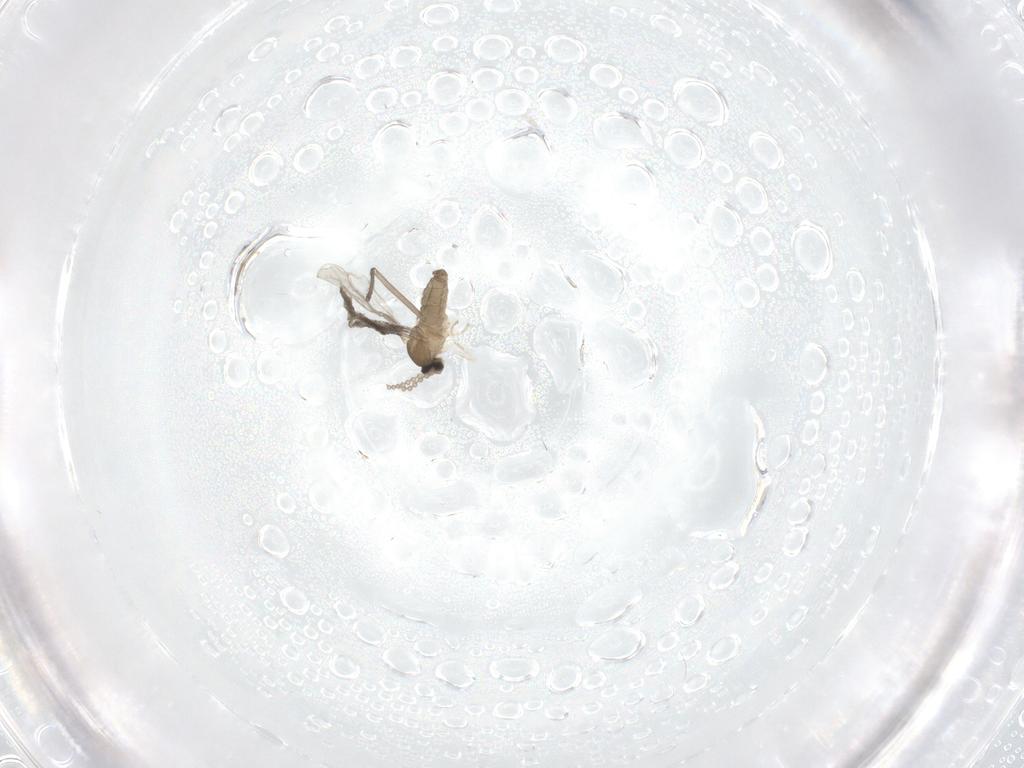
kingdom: Animalia
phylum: Arthropoda
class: Insecta
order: Diptera
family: Cecidomyiidae
